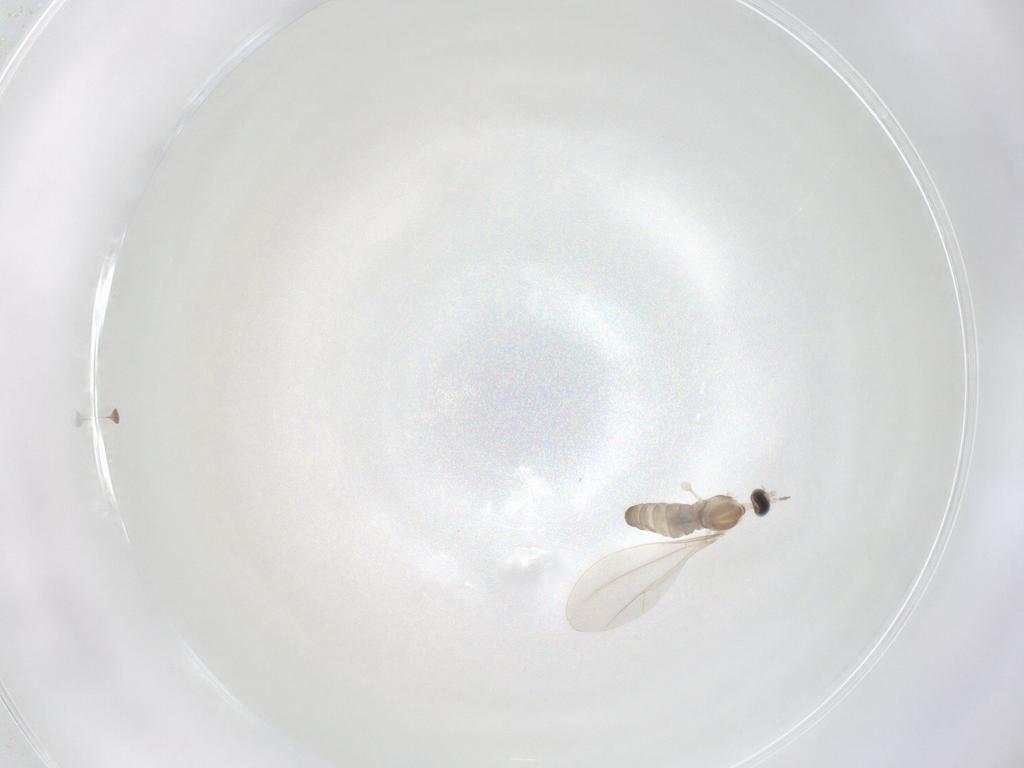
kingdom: Animalia
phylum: Arthropoda
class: Insecta
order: Diptera
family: Cecidomyiidae
